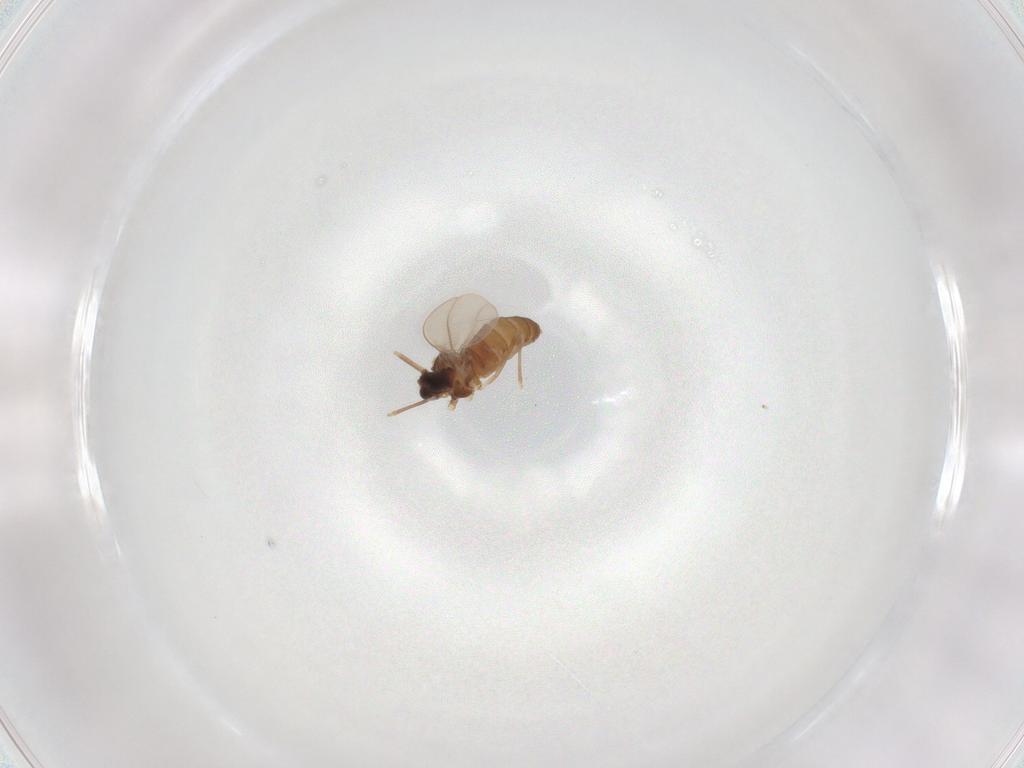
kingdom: Animalia
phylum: Arthropoda
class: Insecta
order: Diptera
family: Cecidomyiidae
